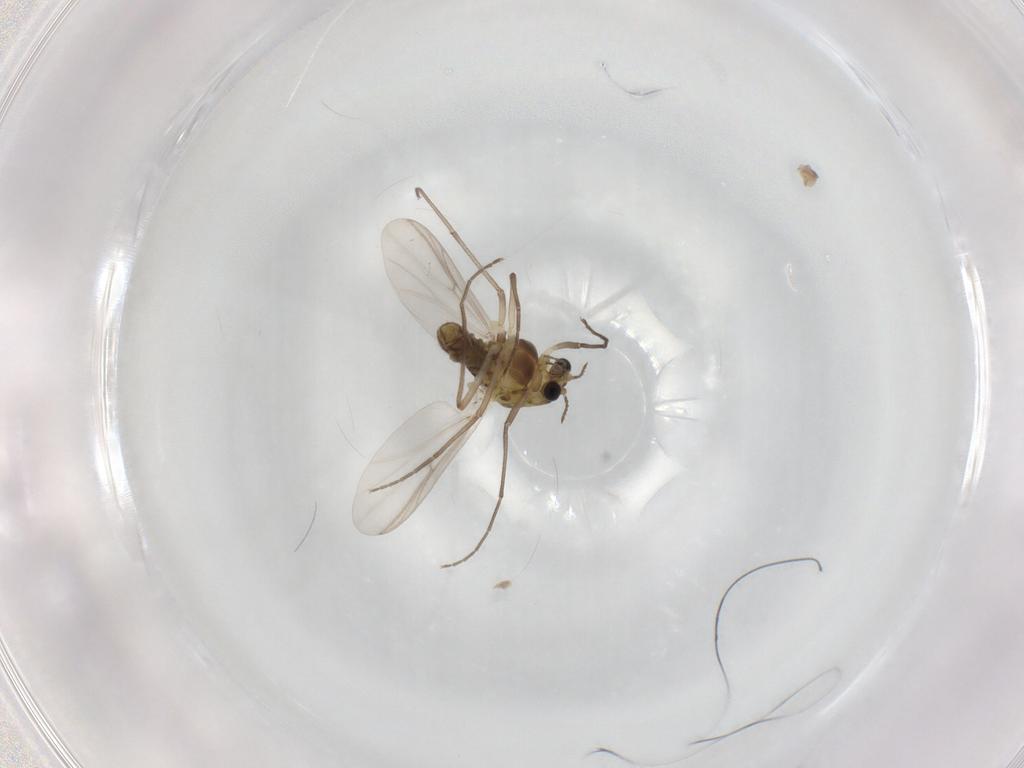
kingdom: Animalia
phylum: Arthropoda
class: Insecta
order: Diptera
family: Chironomidae
